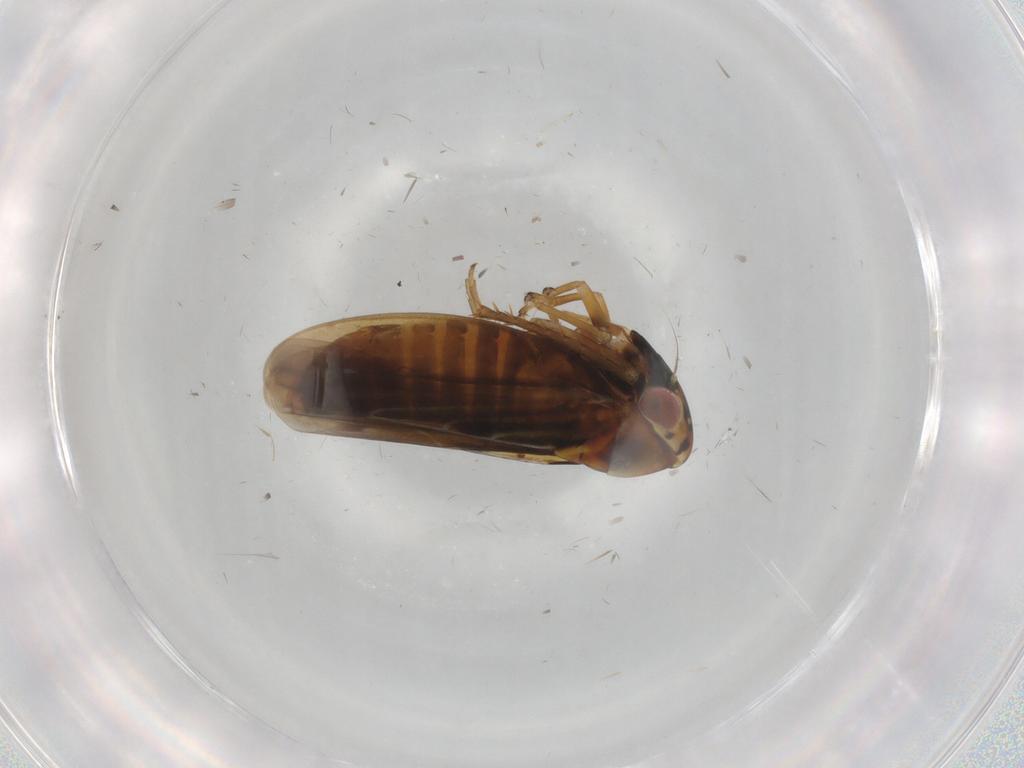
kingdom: Animalia
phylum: Arthropoda
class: Insecta
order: Hemiptera
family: Cicadellidae
